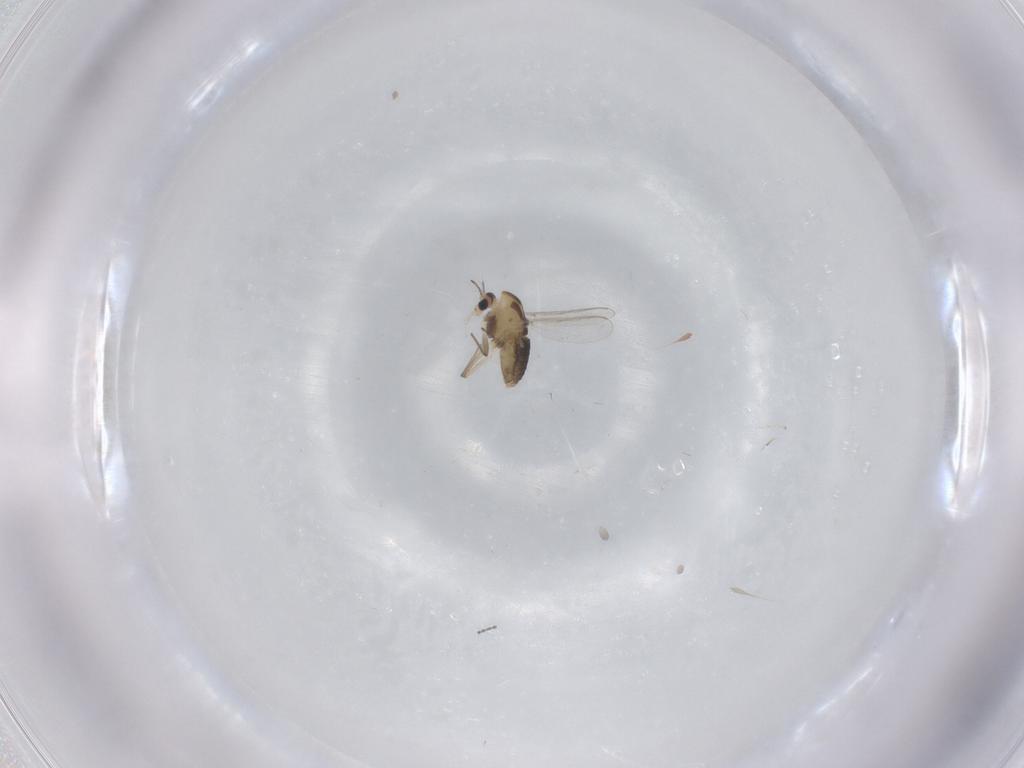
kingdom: Animalia
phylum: Arthropoda
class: Insecta
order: Diptera
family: Cecidomyiidae
